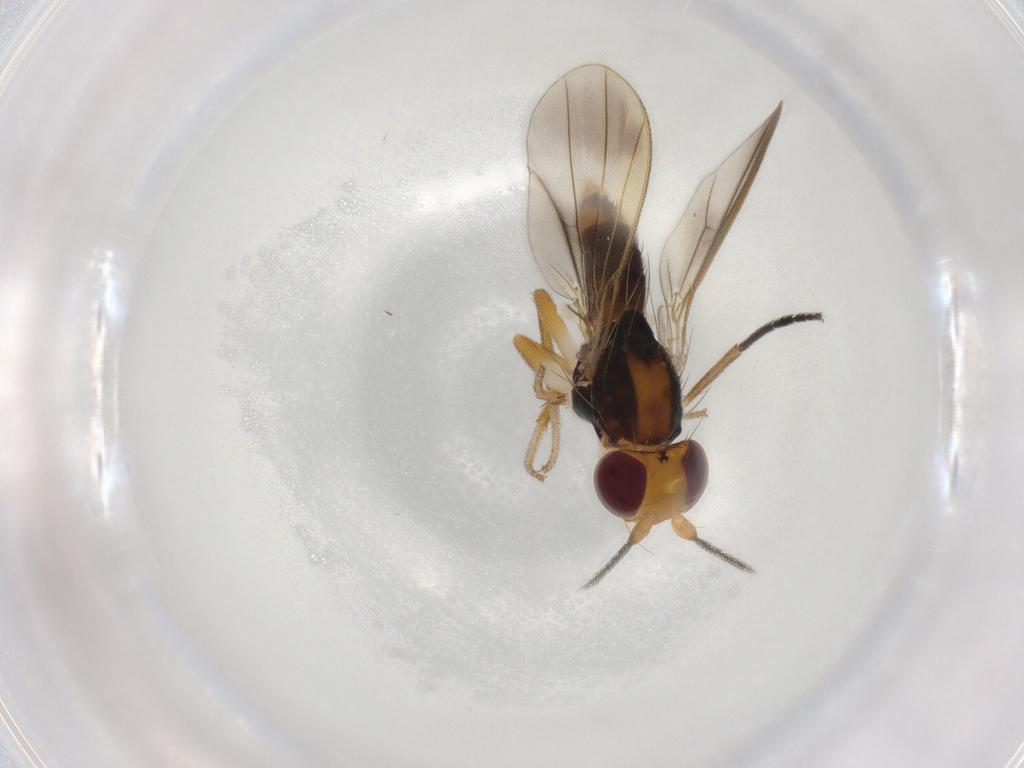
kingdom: Animalia
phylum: Arthropoda
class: Insecta
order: Diptera
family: Clusiidae
